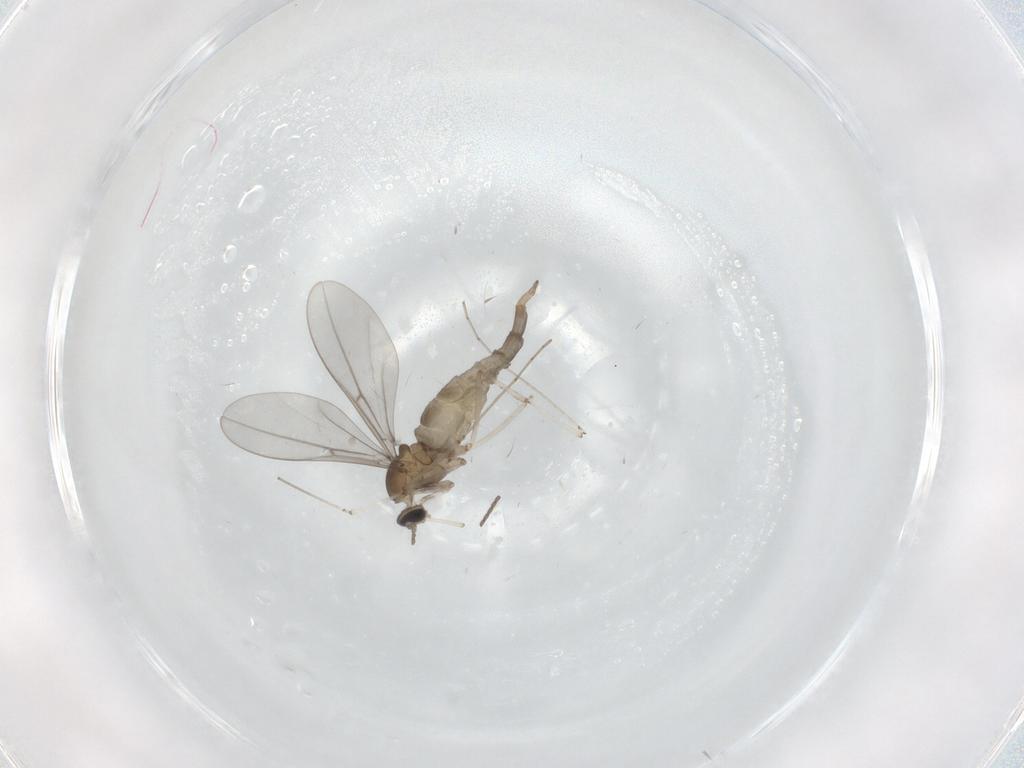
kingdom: Animalia
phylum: Arthropoda
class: Insecta
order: Diptera
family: Cecidomyiidae
